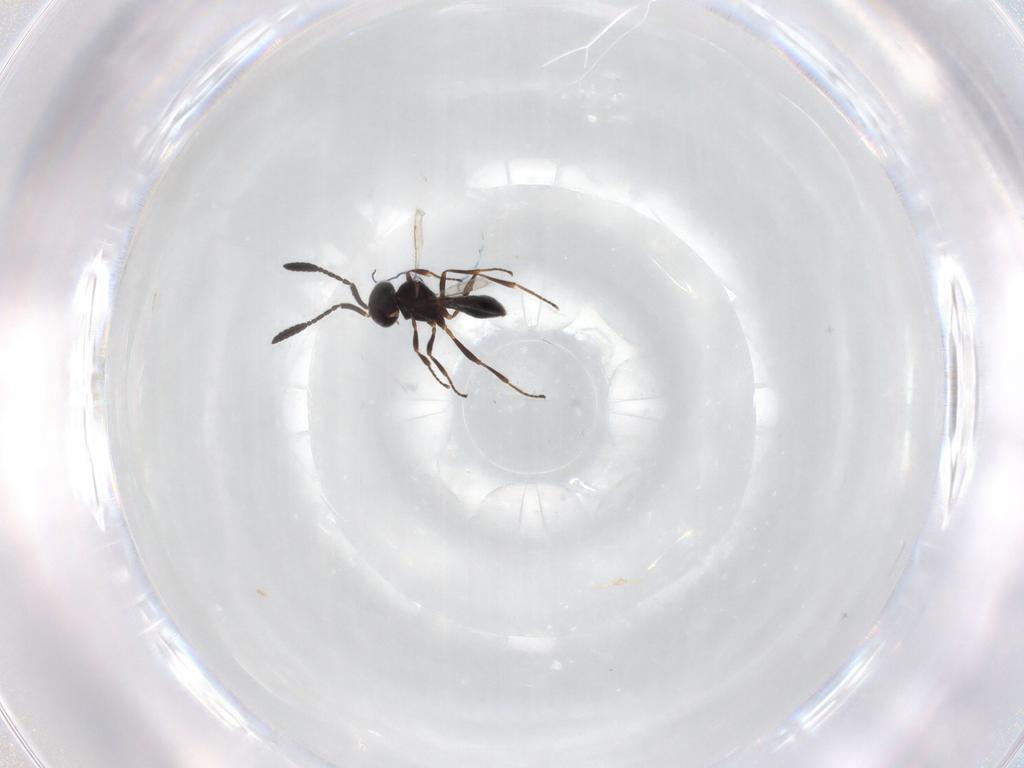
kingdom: Animalia
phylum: Arthropoda
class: Insecta
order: Hymenoptera
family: Scelionidae
